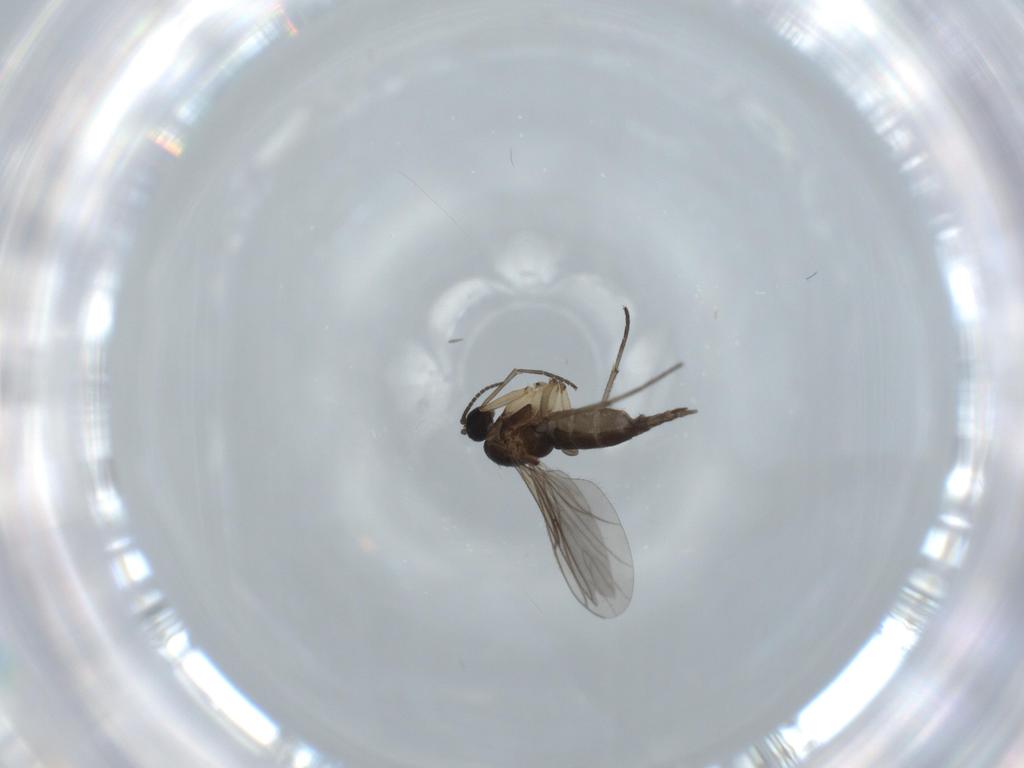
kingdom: Animalia
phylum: Arthropoda
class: Insecta
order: Diptera
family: Sciaridae
